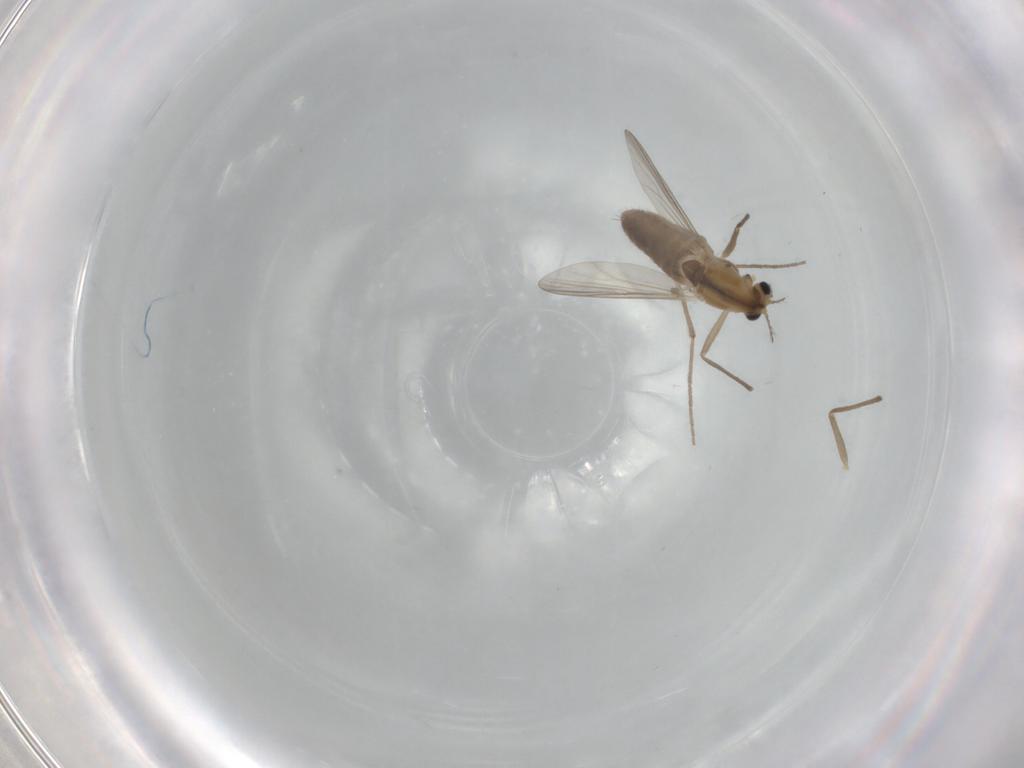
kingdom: Animalia
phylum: Arthropoda
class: Insecta
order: Diptera
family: Chironomidae
